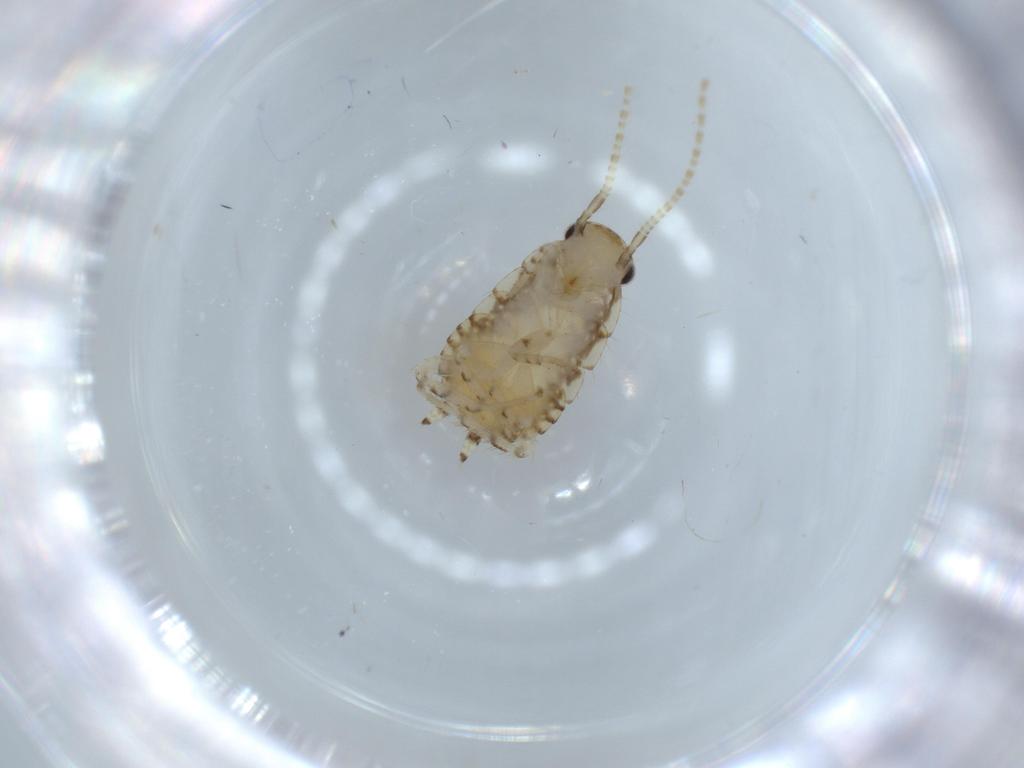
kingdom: Animalia
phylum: Arthropoda
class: Insecta
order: Blattodea
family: Ectobiidae
